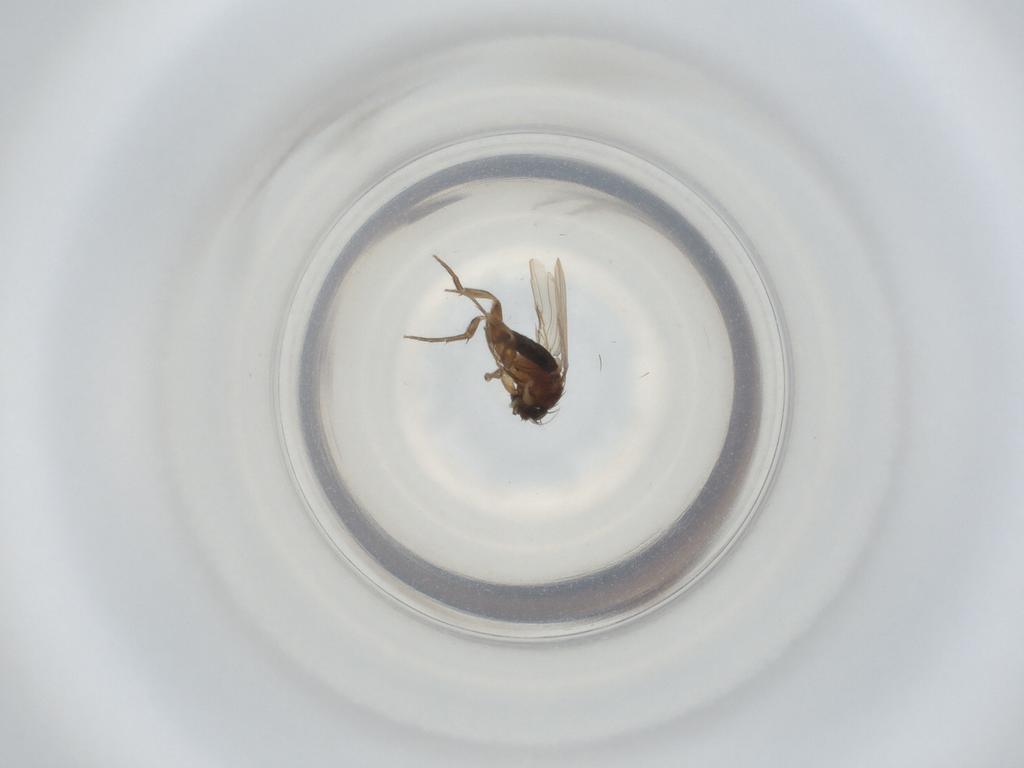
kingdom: Animalia
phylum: Arthropoda
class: Insecta
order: Diptera
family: Phoridae
